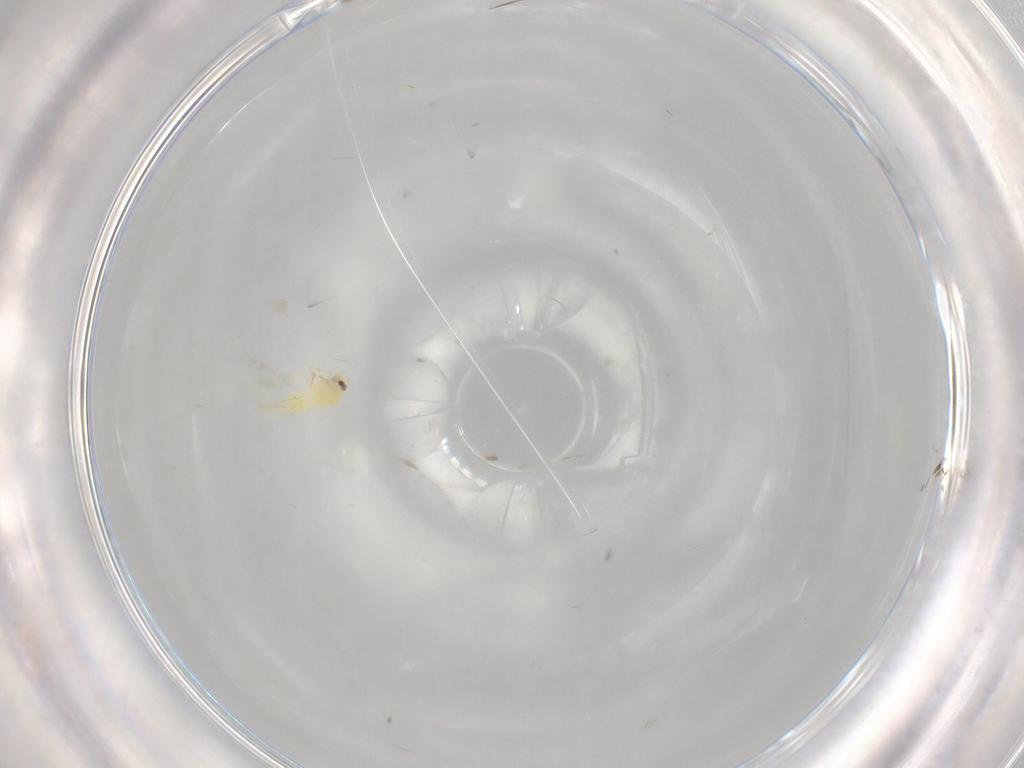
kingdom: Animalia
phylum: Arthropoda
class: Insecta
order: Hemiptera
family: Aleyrodidae
